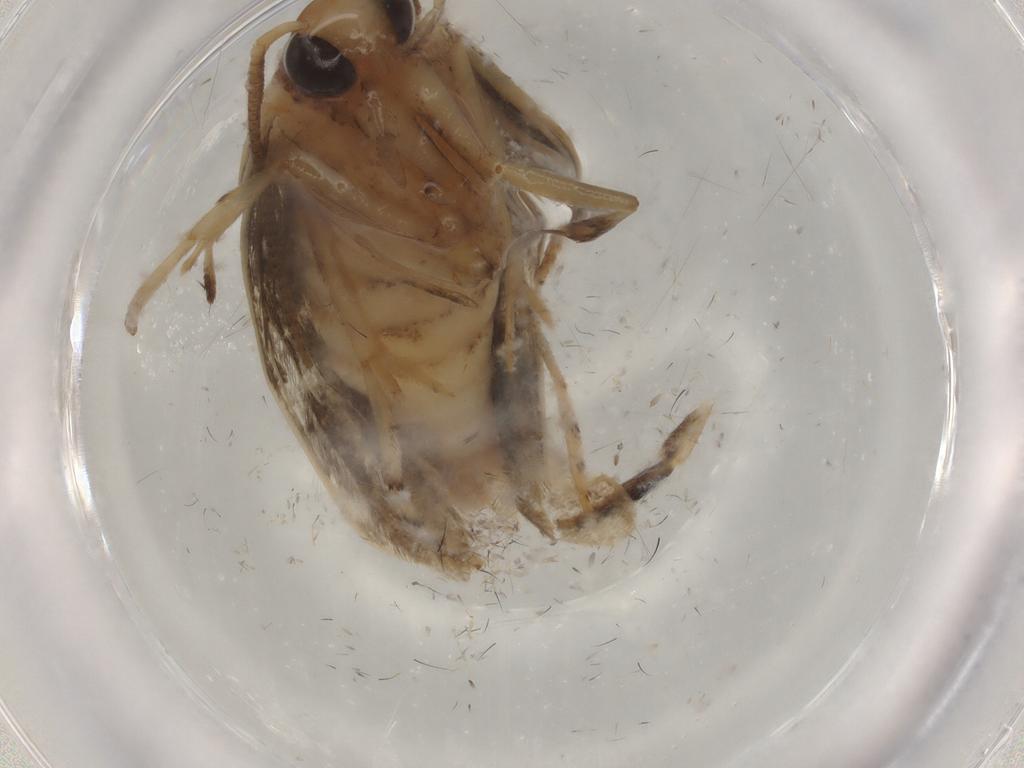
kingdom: Animalia
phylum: Arthropoda
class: Insecta
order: Lepidoptera
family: Yponomeutidae
